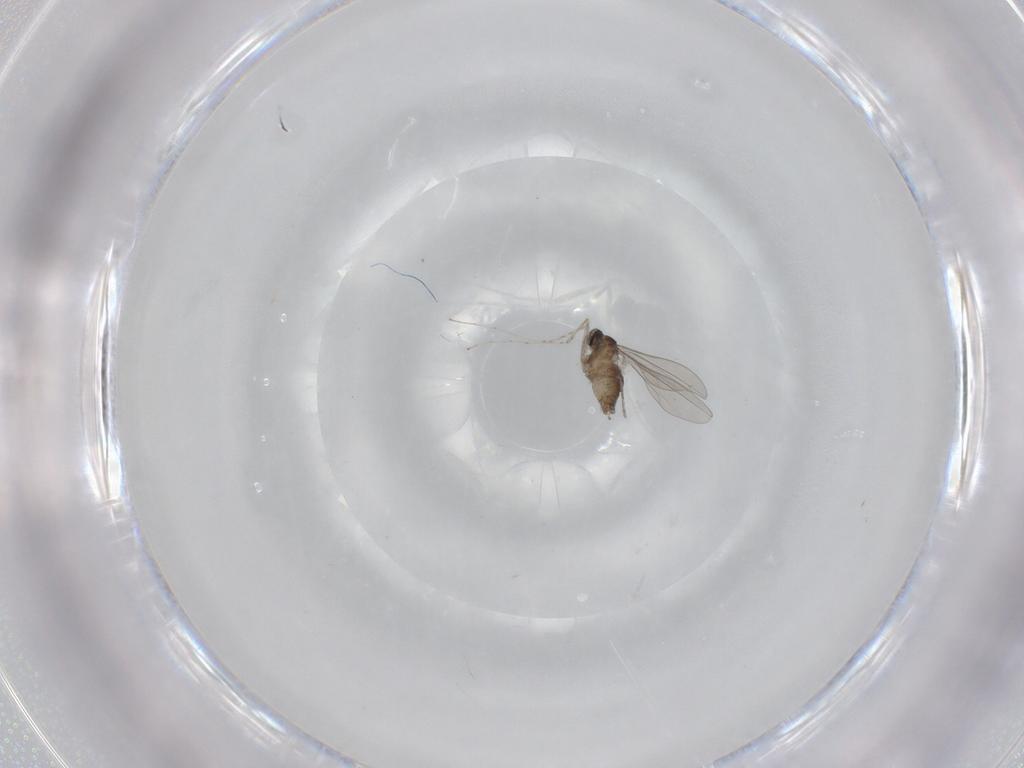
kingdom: Animalia
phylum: Arthropoda
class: Insecta
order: Diptera
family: Cecidomyiidae
